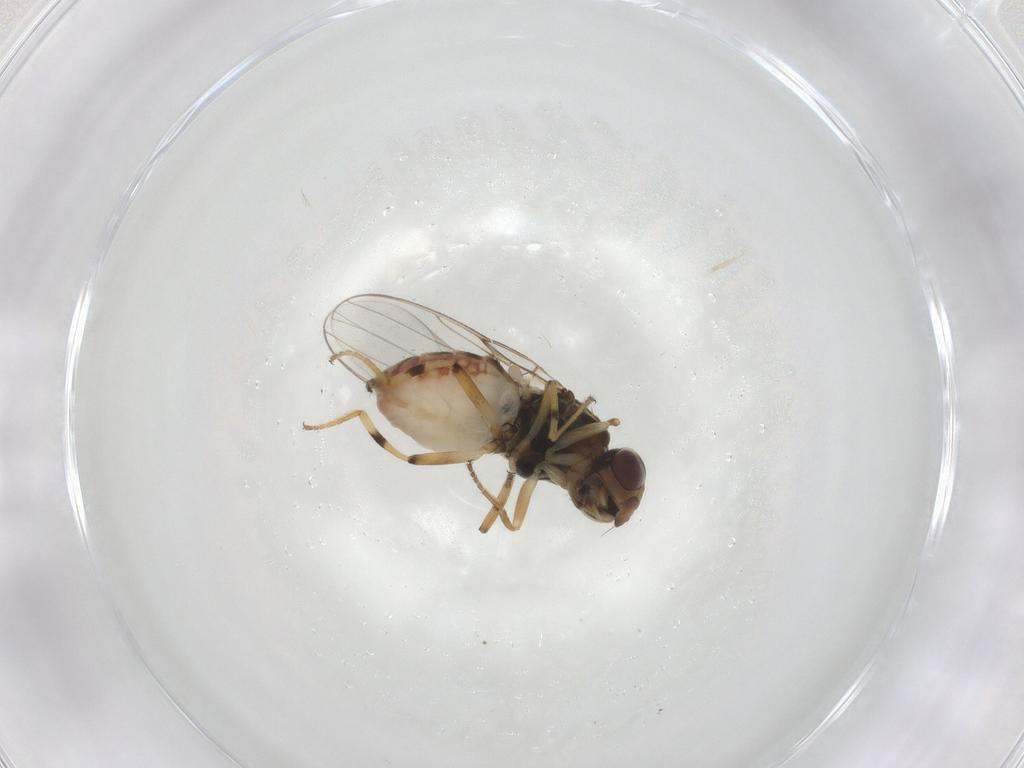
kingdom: Animalia
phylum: Arthropoda
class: Insecta
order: Diptera
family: Chloropidae
